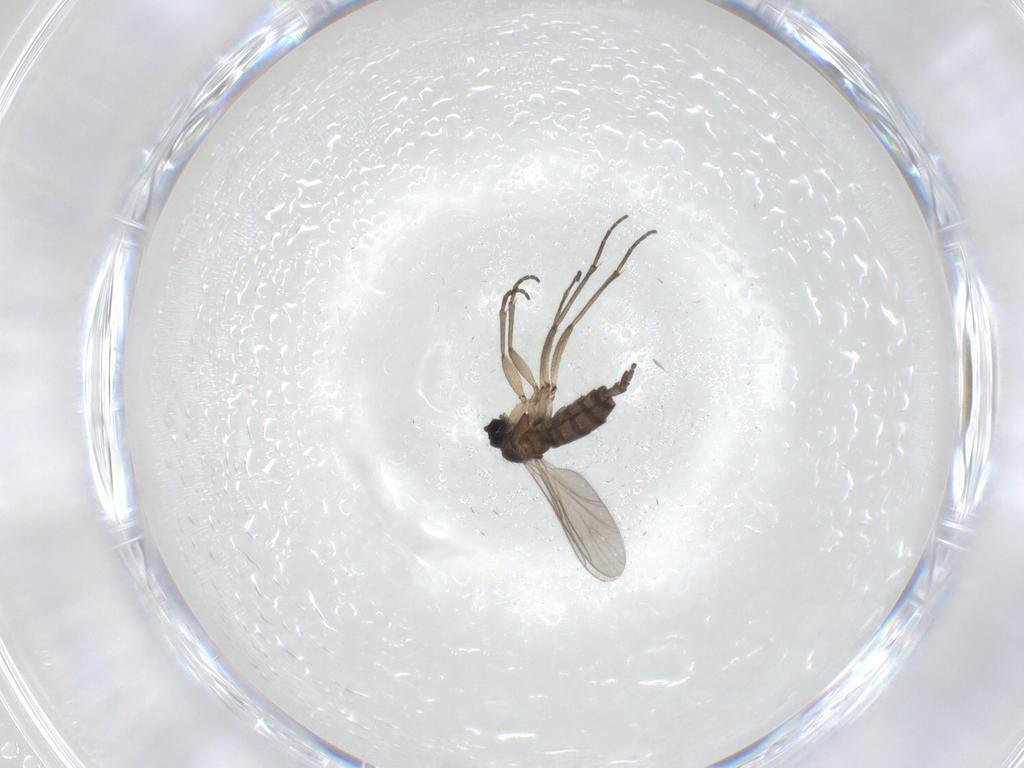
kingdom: Animalia
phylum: Arthropoda
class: Insecta
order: Diptera
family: Sciaridae
